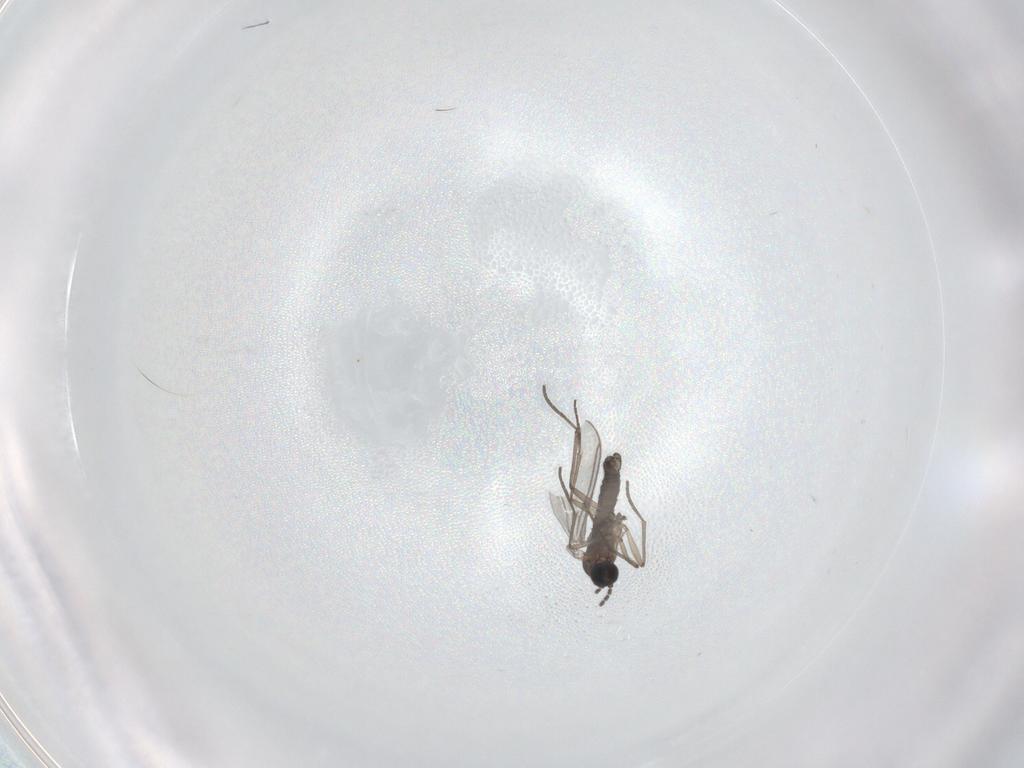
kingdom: Animalia
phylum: Arthropoda
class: Insecta
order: Diptera
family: Sciaridae
